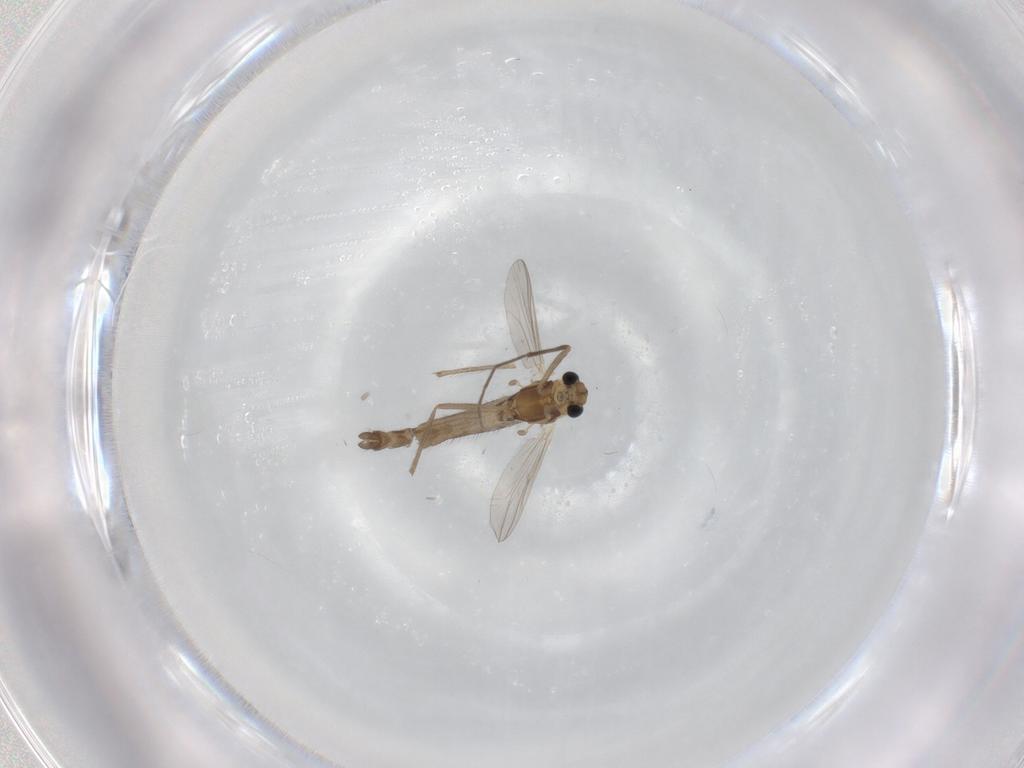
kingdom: Animalia
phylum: Arthropoda
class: Insecta
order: Diptera
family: Chironomidae
